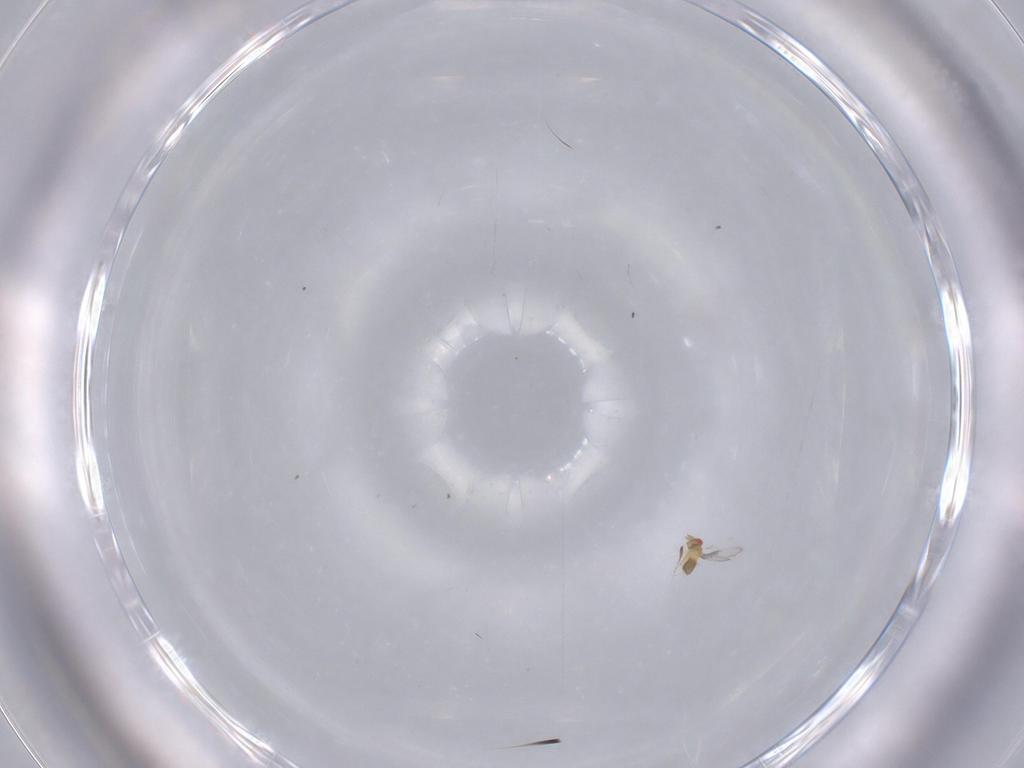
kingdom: Animalia
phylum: Arthropoda
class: Insecta
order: Hymenoptera
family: Trichogrammatidae
